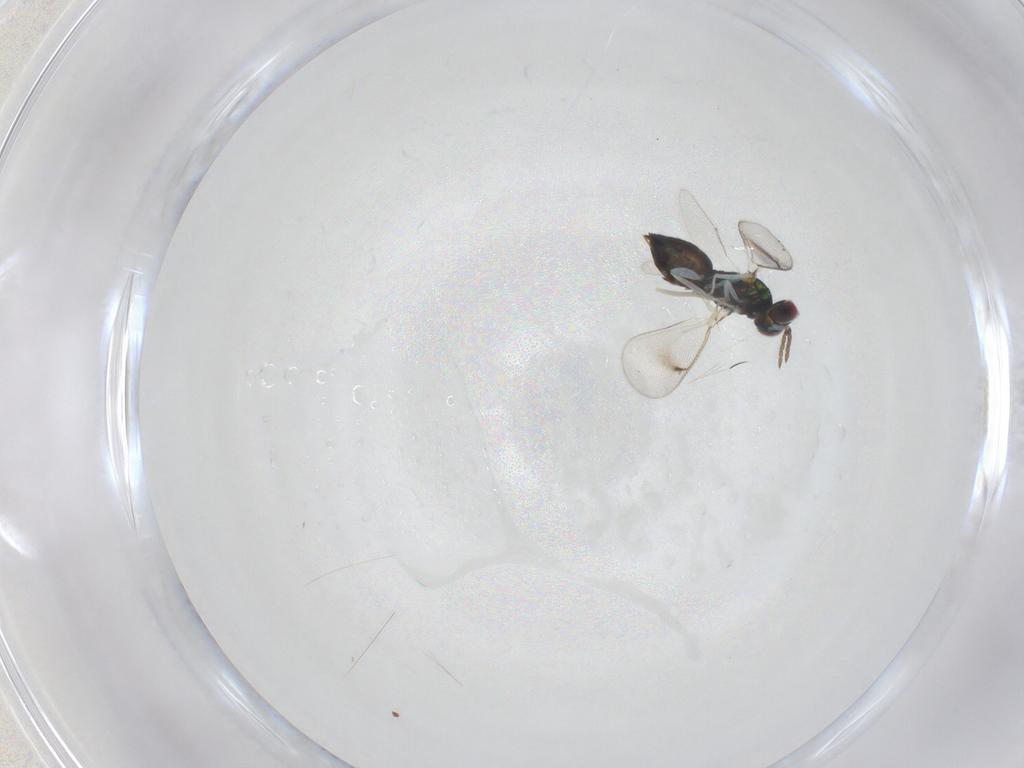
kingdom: Animalia
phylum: Arthropoda
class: Insecta
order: Hymenoptera
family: Eulophidae
